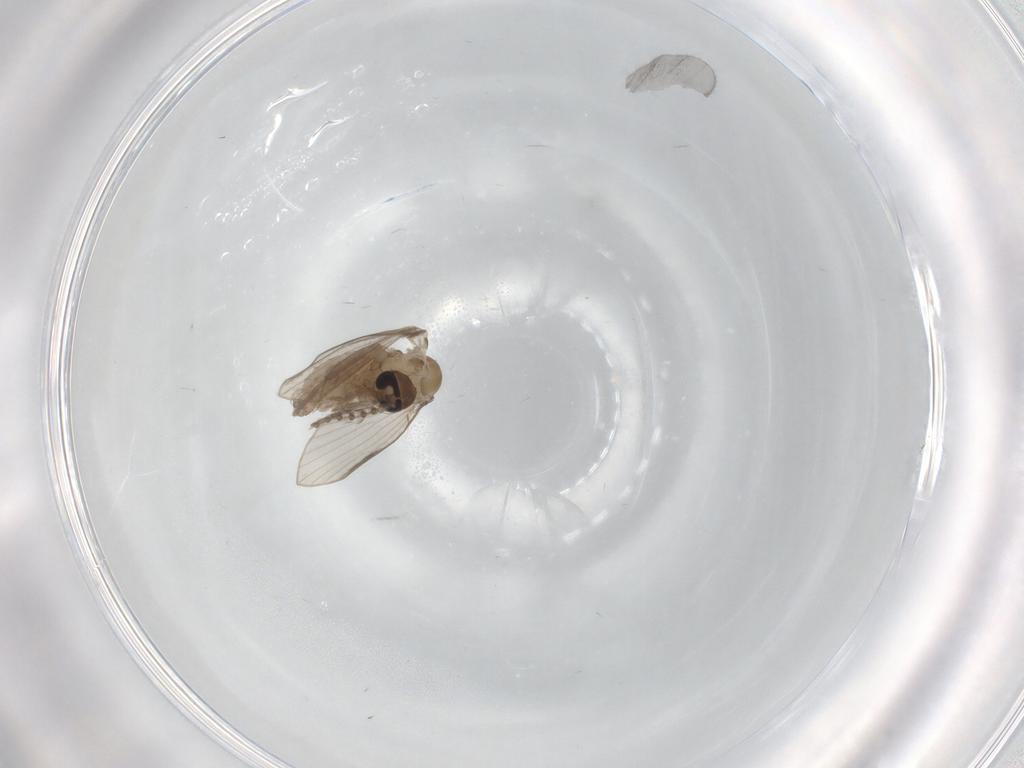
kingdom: Animalia
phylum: Arthropoda
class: Insecta
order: Diptera
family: Psychodidae
